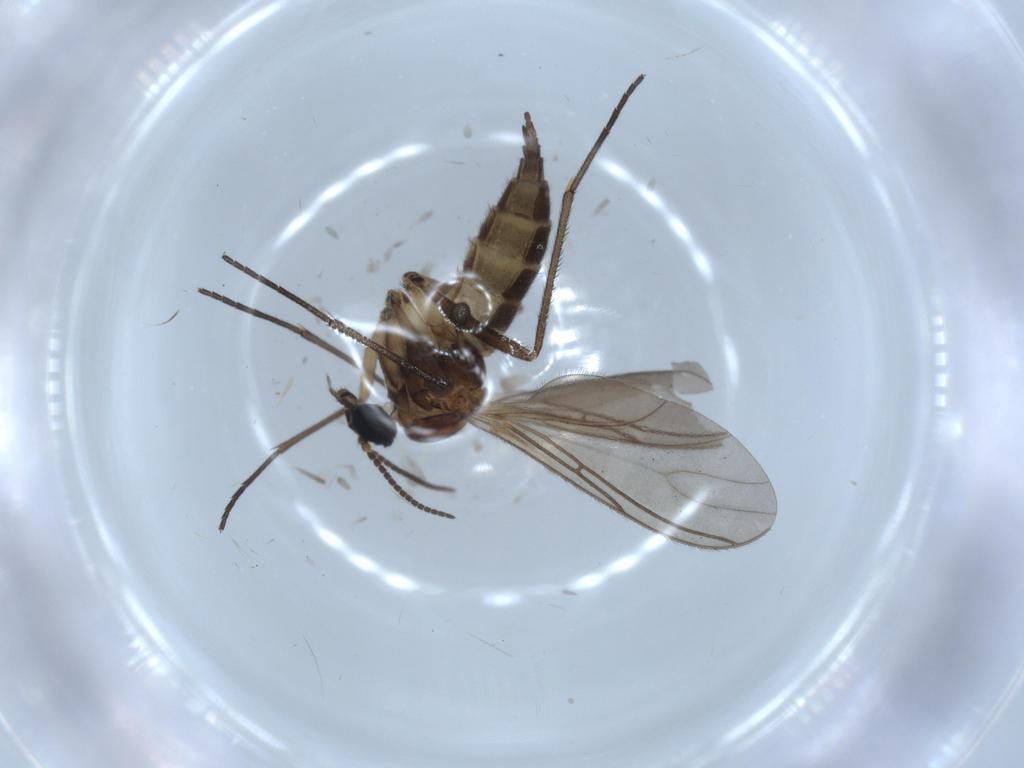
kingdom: Animalia
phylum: Arthropoda
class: Insecta
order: Diptera
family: Phoridae
